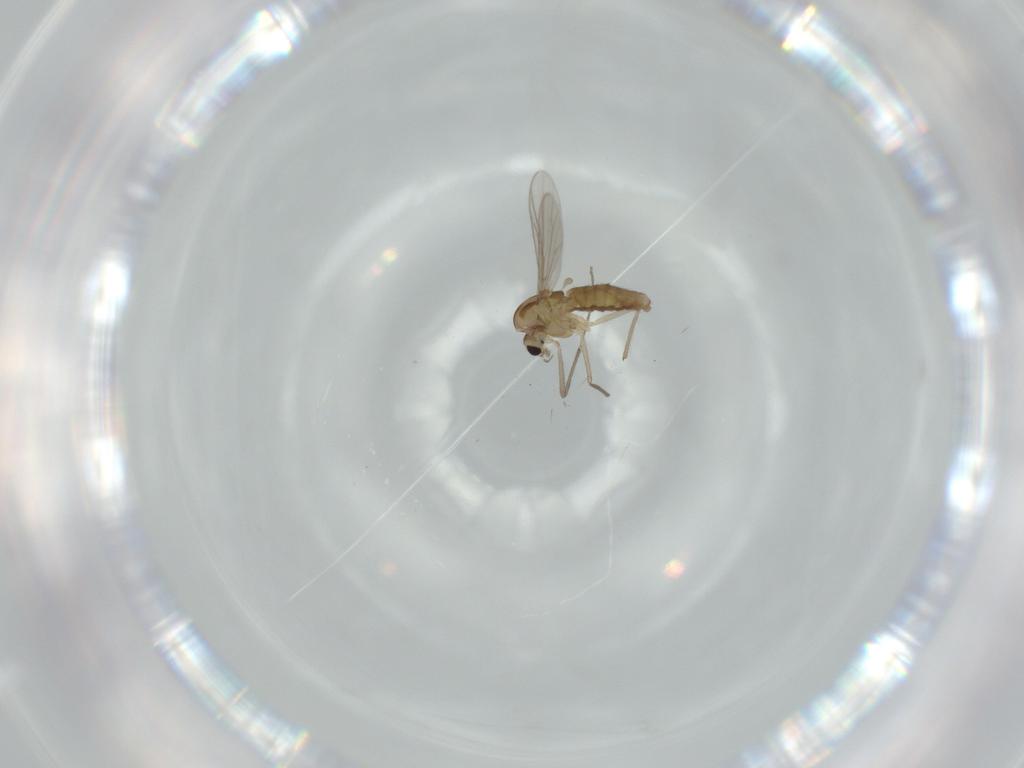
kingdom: Animalia
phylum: Arthropoda
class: Insecta
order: Diptera
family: Chironomidae
